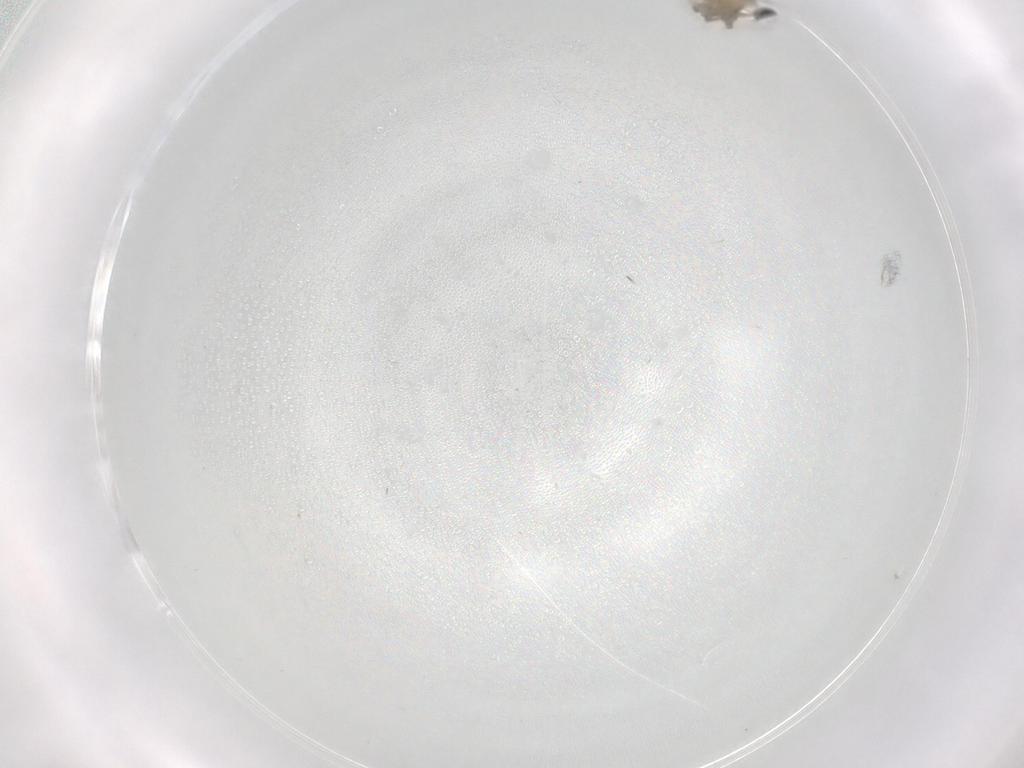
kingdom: Animalia
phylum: Arthropoda
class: Insecta
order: Diptera
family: Cecidomyiidae
